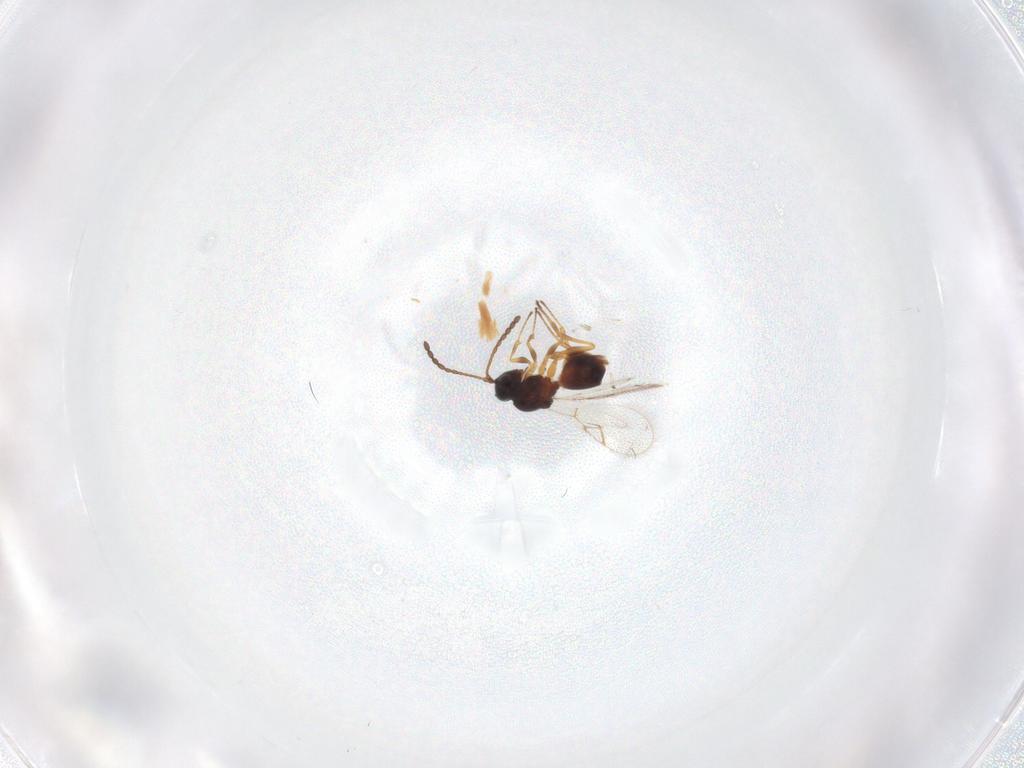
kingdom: Animalia
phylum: Arthropoda
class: Insecta
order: Hymenoptera
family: Figitidae
